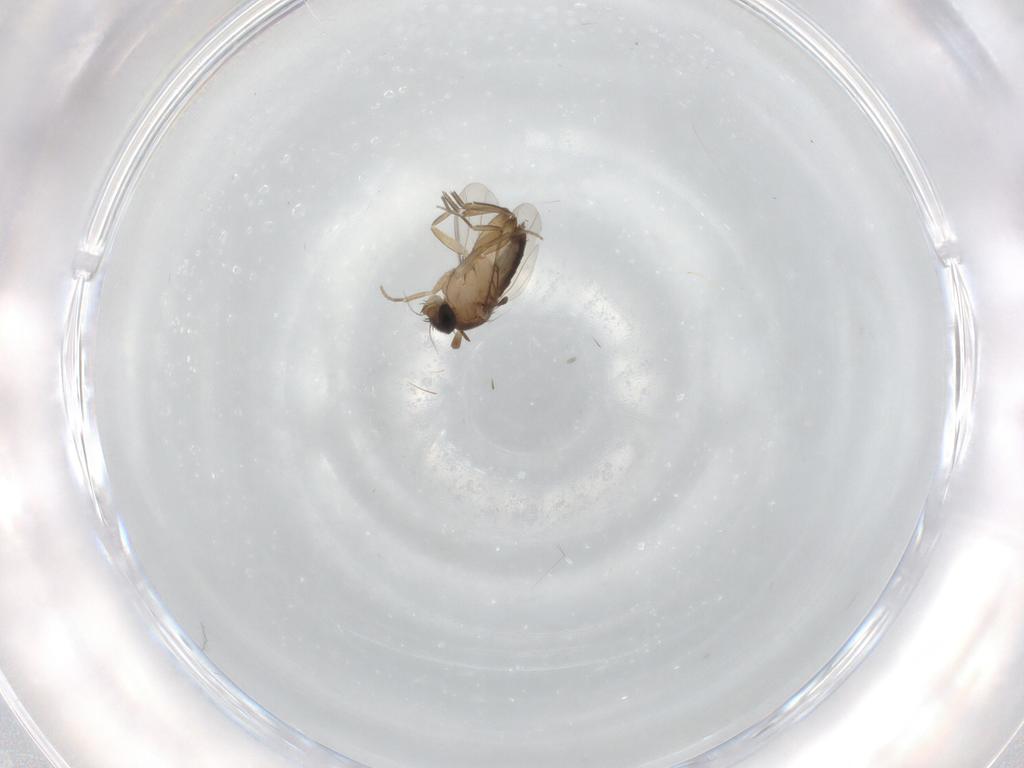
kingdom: Animalia
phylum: Arthropoda
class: Insecta
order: Diptera
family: Phoridae
